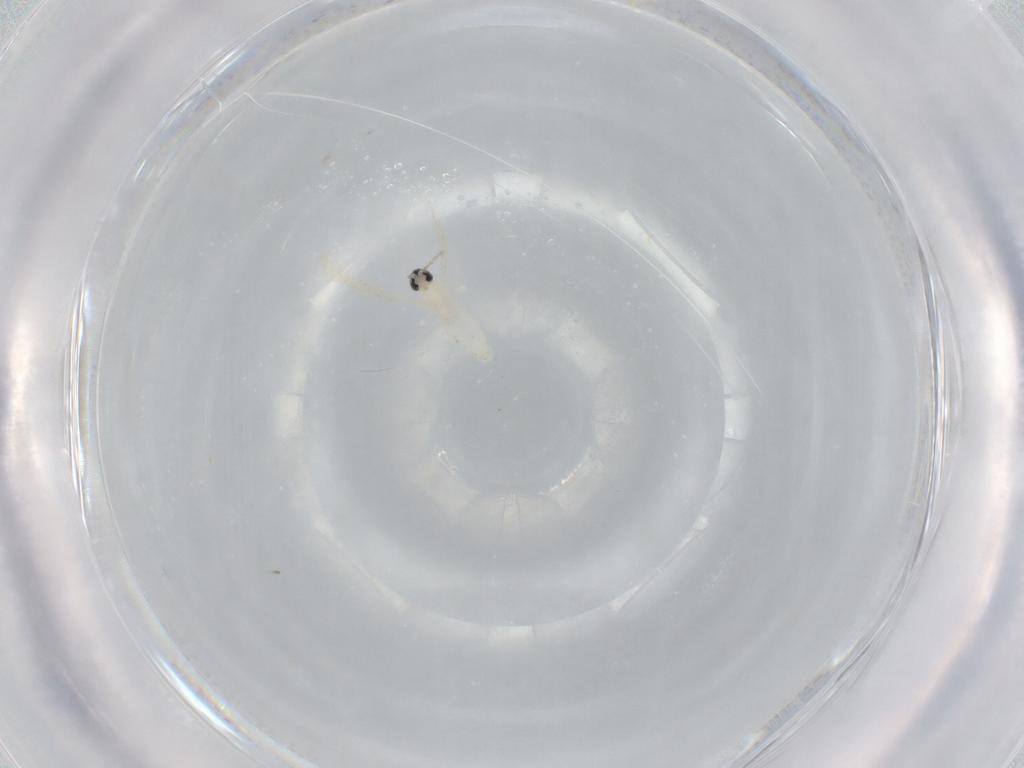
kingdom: Animalia
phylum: Arthropoda
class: Insecta
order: Diptera
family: Cecidomyiidae
